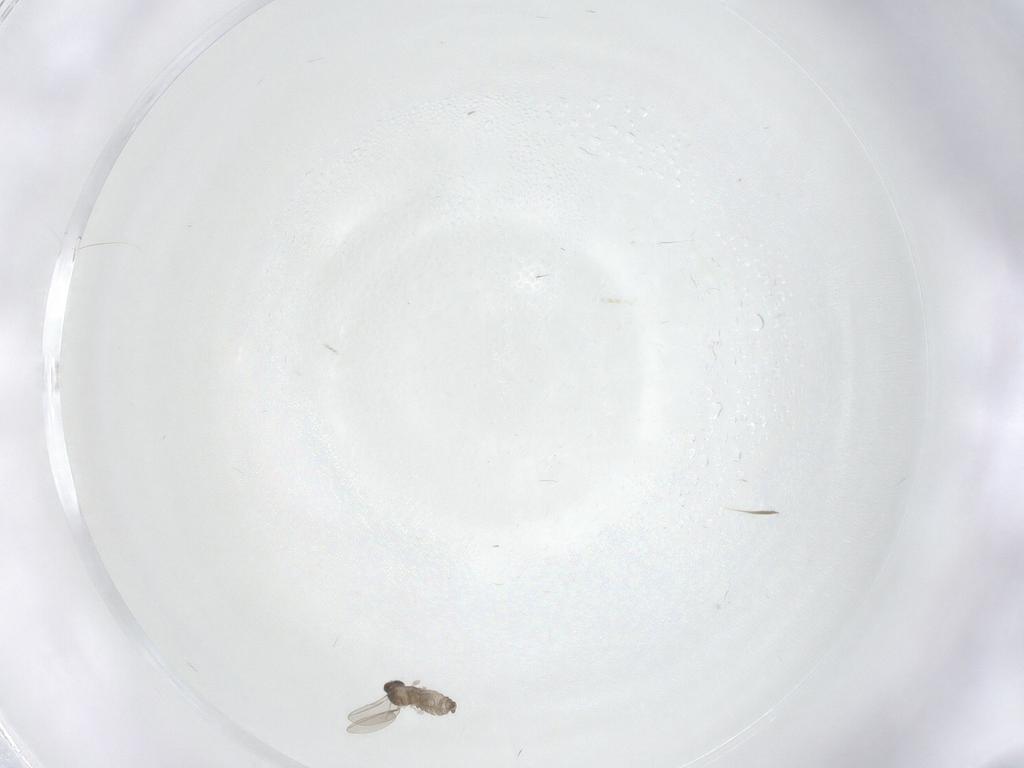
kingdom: Animalia
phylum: Arthropoda
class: Insecta
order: Diptera
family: Cecidomyiidae
